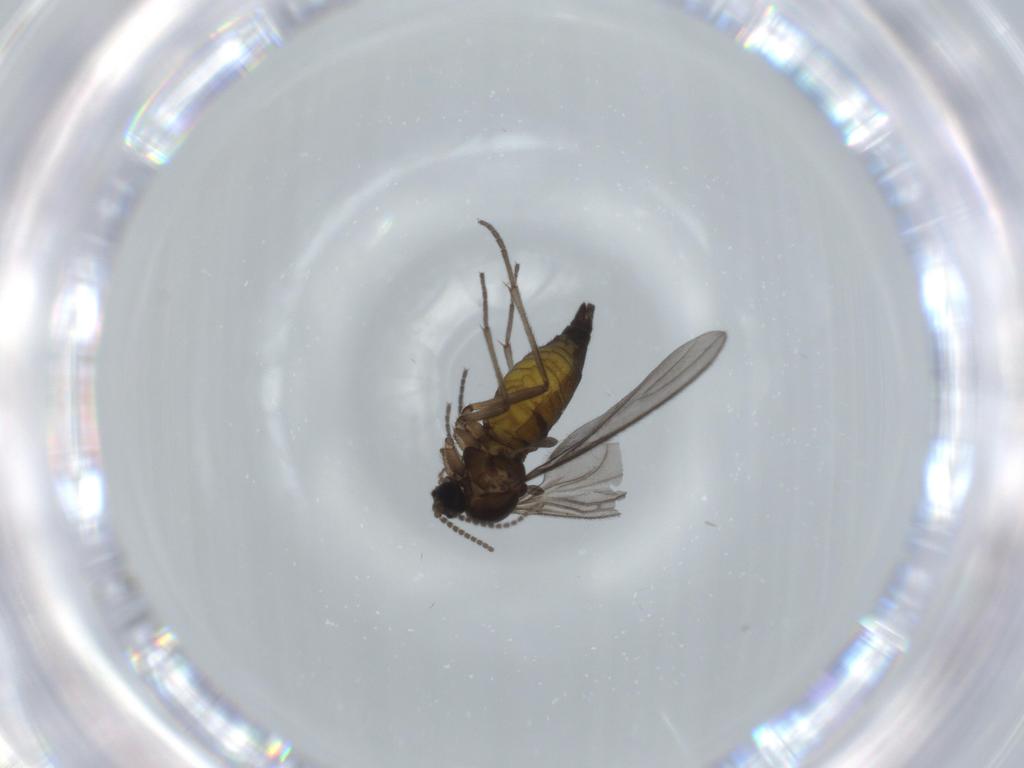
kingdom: Animalia
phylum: Arthropoda
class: Insecta
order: Diptera
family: Sciaridae
